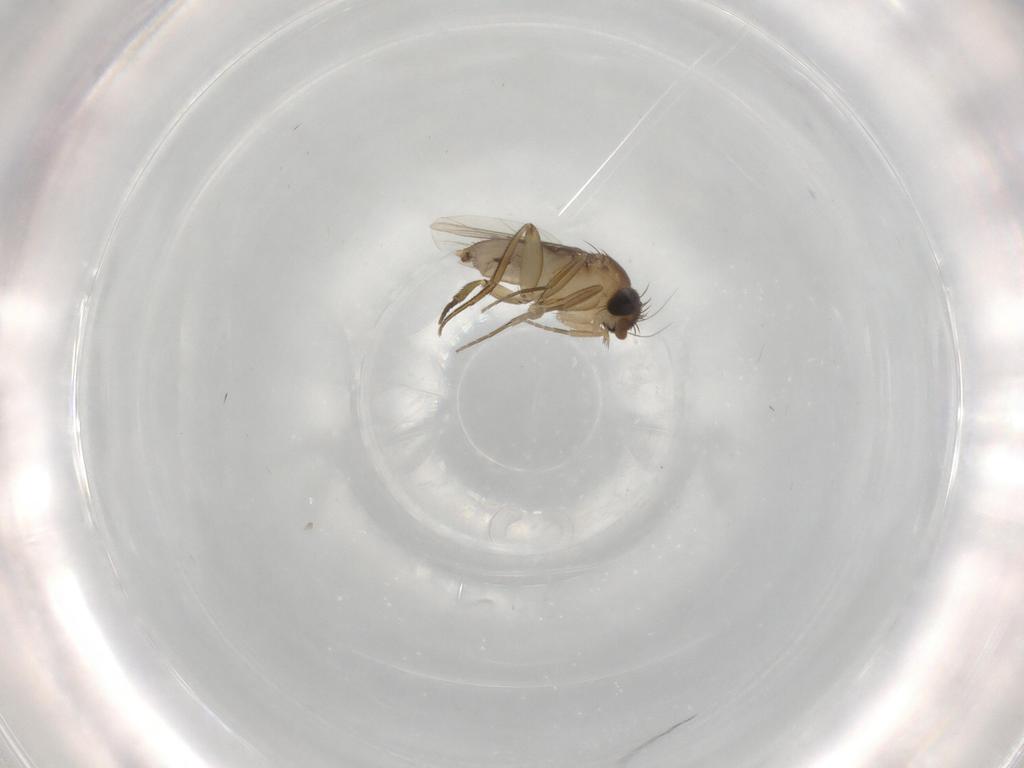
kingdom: Animalia
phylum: Arthropoda
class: Insecta
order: Diptera
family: Phoridae
